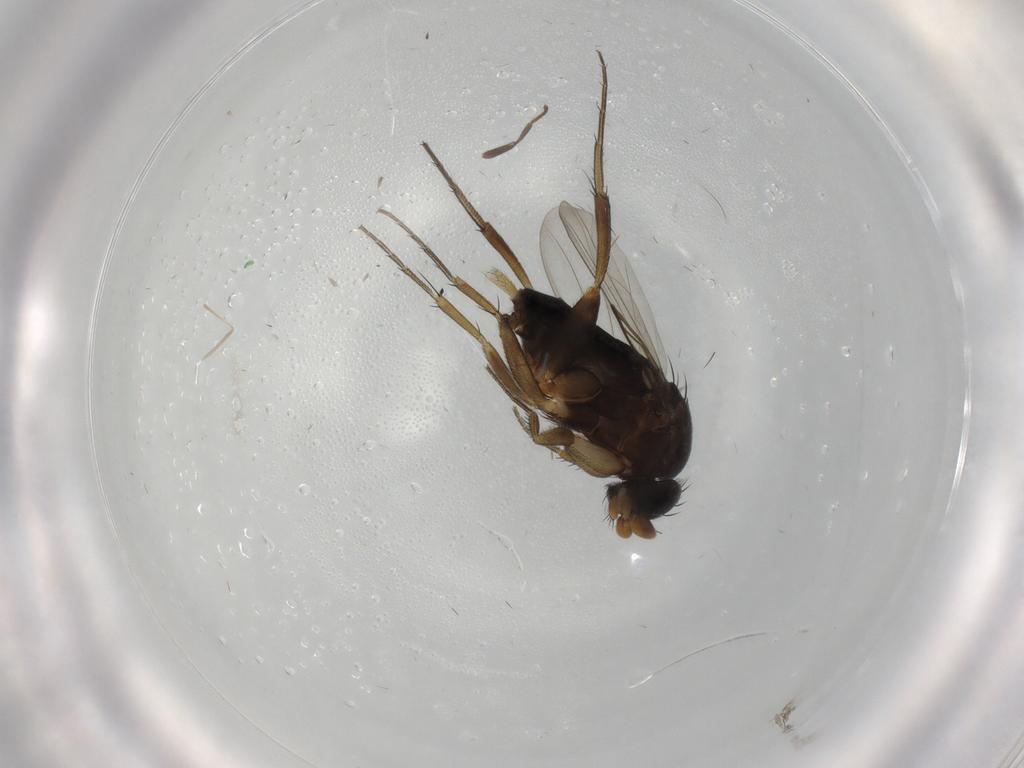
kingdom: Animalia
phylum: Arthropoda
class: Insecta
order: Diptera
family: Phoridae
